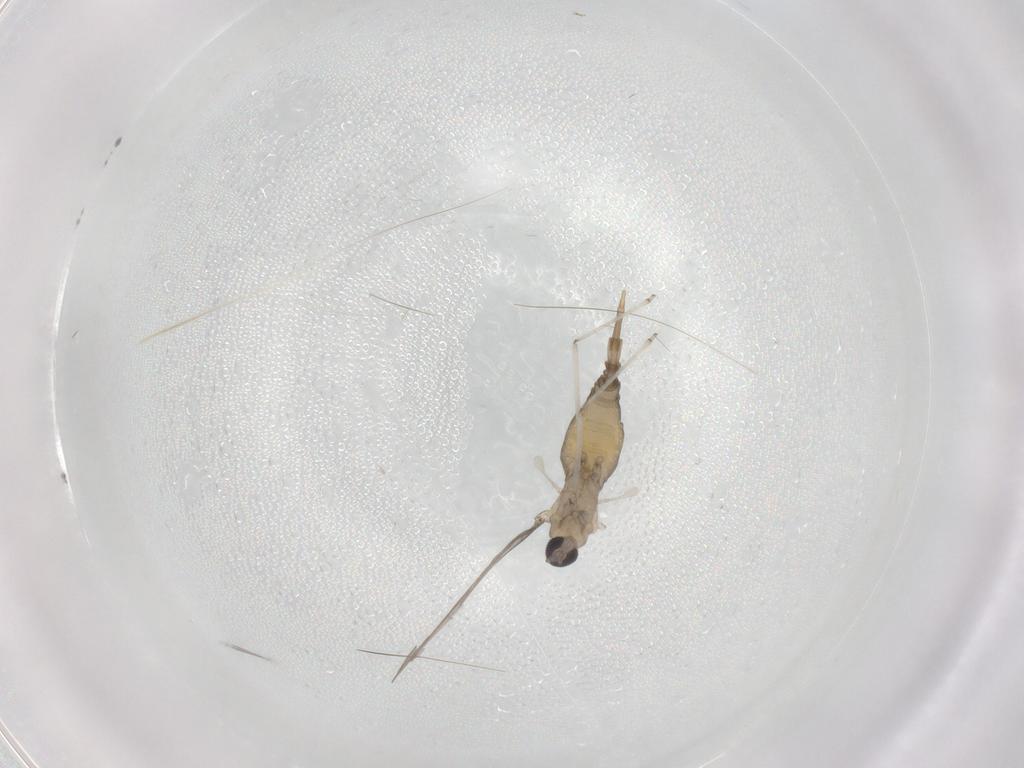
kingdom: Animalia
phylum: Arthropoda
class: Insecta
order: Diptera
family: Cecidomyiidae
